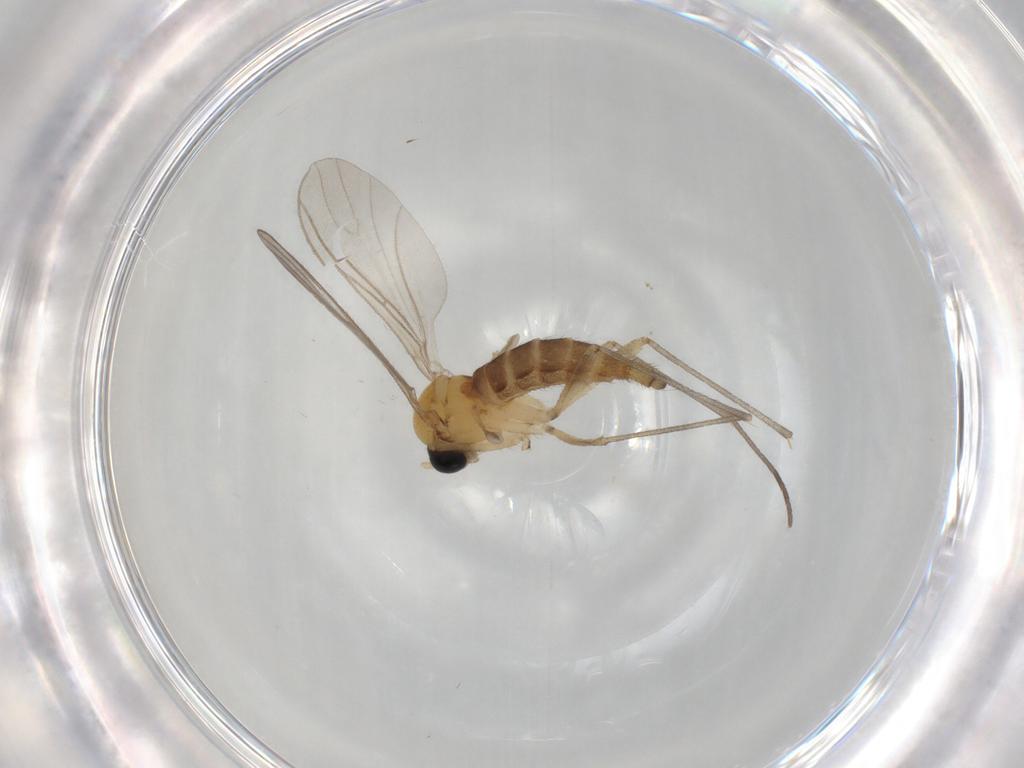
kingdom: Animalia
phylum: Arthropoda
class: Insecta
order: Diptera
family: Sciaridae
